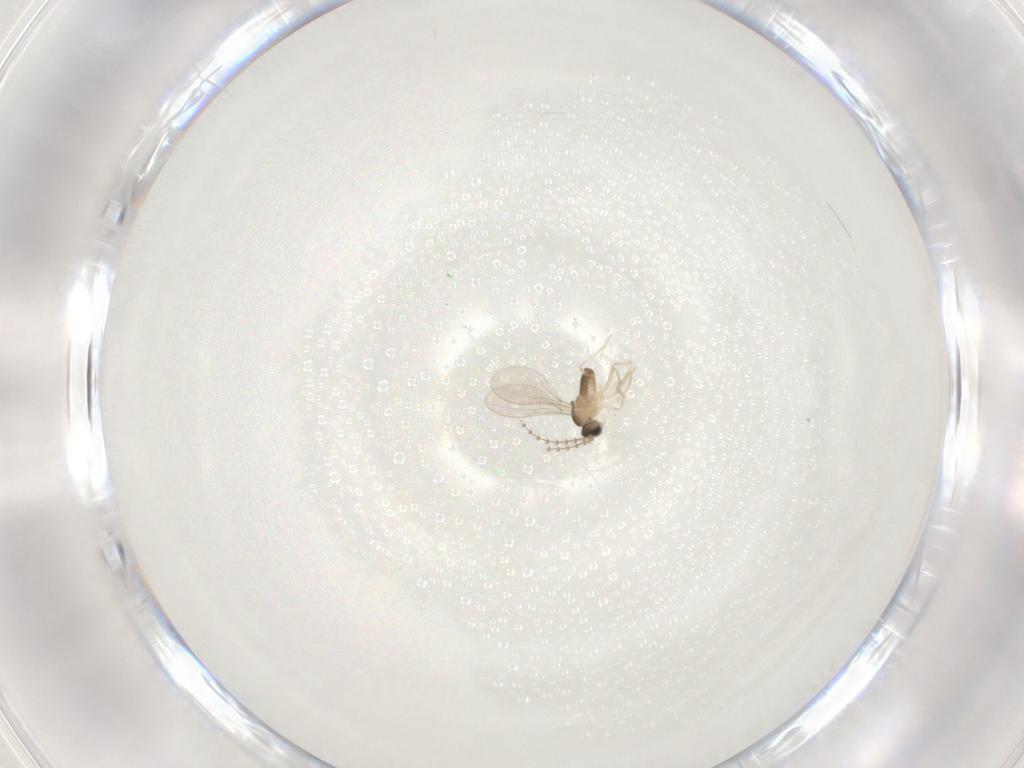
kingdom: Animalia
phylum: Arthropoda
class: Insecta
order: Diptera
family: Cecidomyiidae
